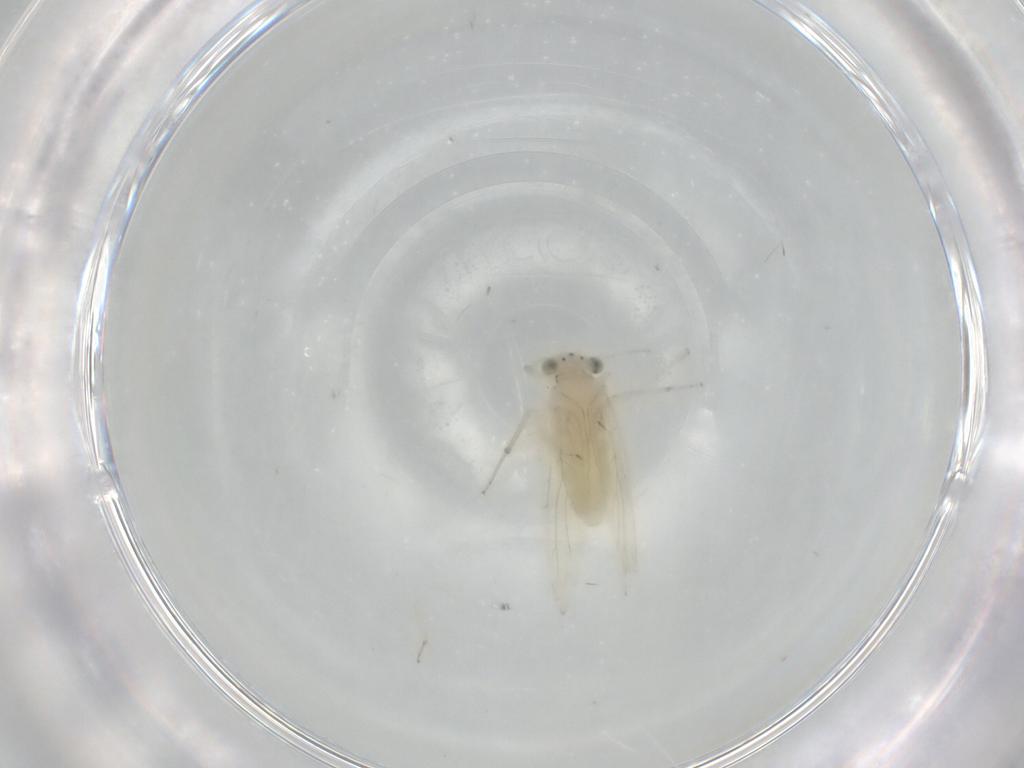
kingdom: Animalia
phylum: Arthropoda
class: Insecta
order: Psocodea
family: Lepidopsocidae
